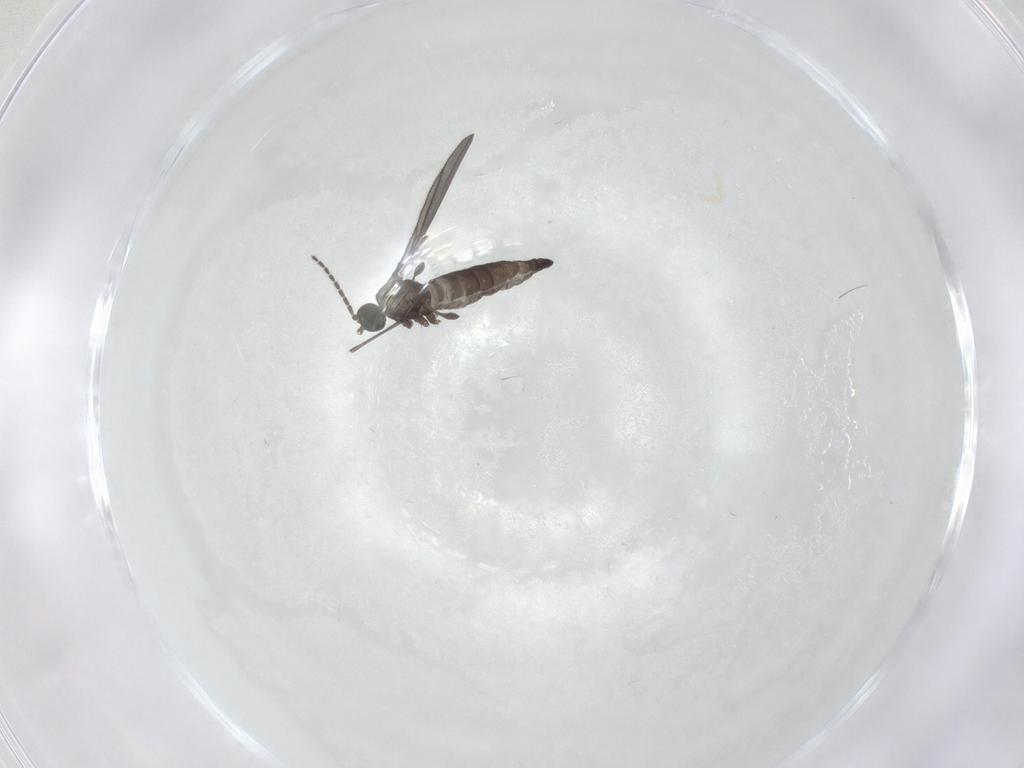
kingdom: Animalia
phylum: Arthropoda
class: Insecta
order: Diptera
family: Sciaridae
